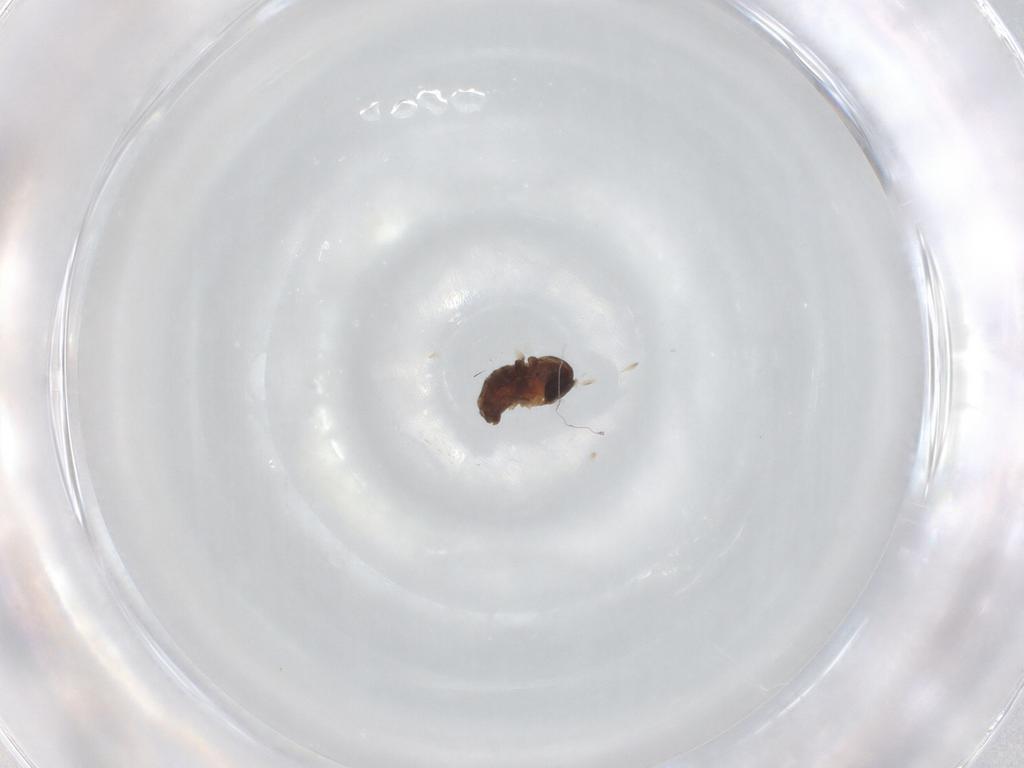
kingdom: Animalia
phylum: Arthropoda
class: Insecta
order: Diptera
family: Psychodidae
